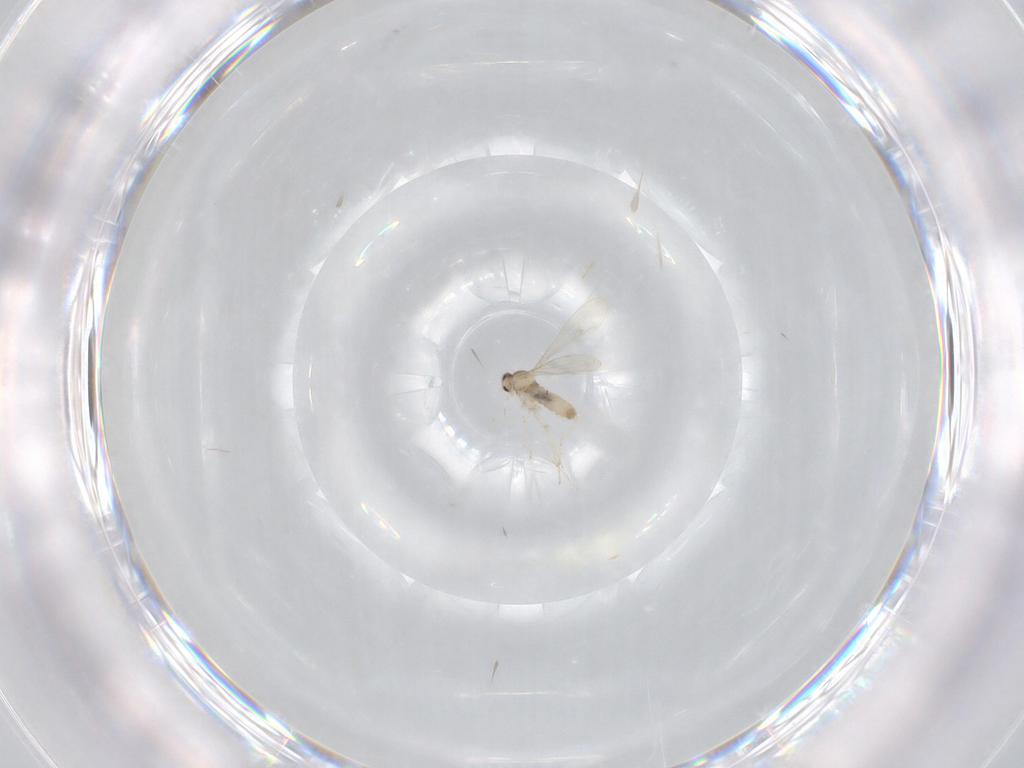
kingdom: Animalia
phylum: Arthropoda
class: Insecta
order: Diptera
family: Cecidomyiidae
